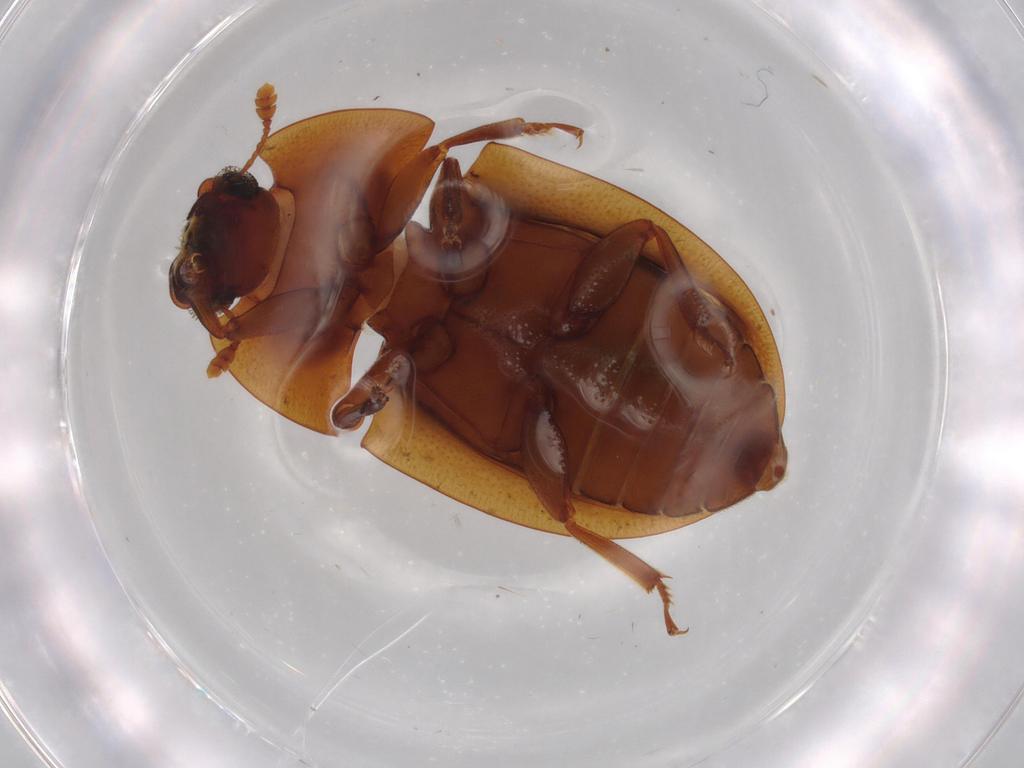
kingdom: Animalia
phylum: Arthropoda
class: Insecta
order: Coleoptera
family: Nitidulidae
